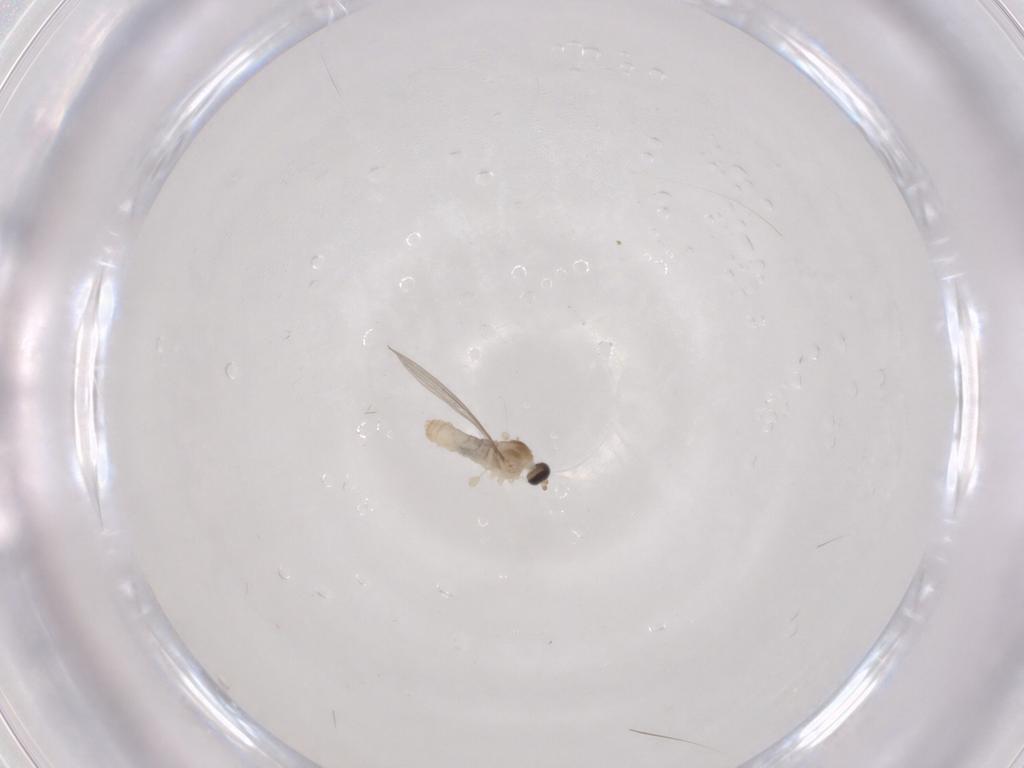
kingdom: Animalia
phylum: Arthropoda
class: Insecta
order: Diptera
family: Cecidomyiidae
